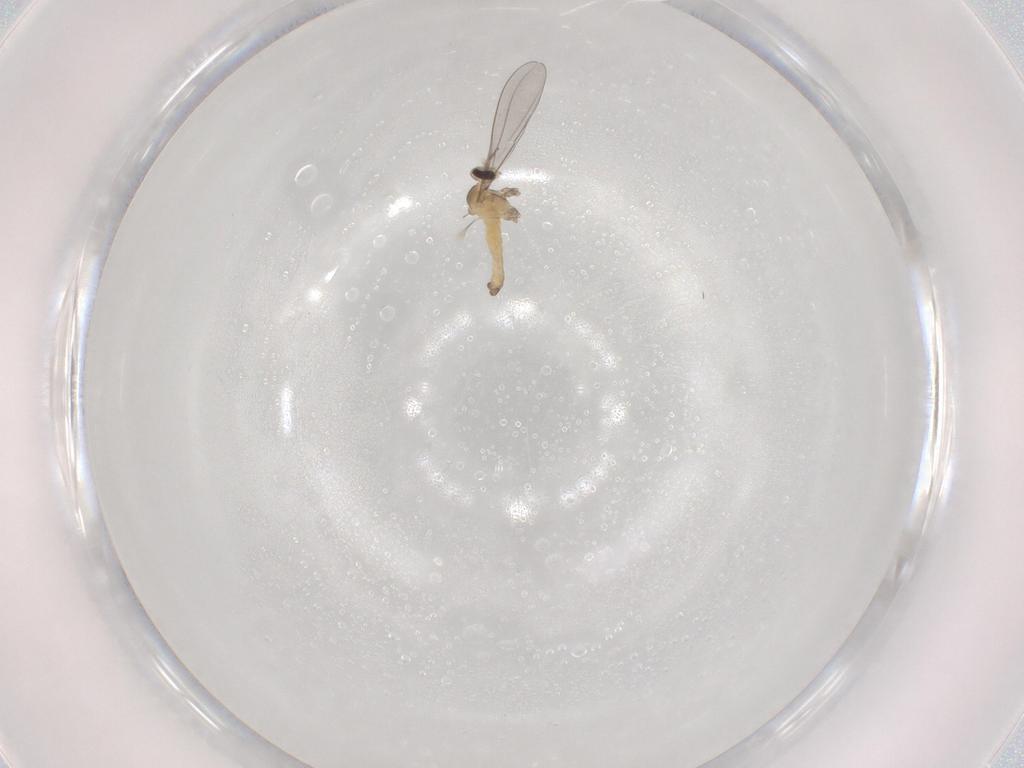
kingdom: Animalia
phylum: Arthropoda
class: Insecta
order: Diptera
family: Cecidomyiidae
